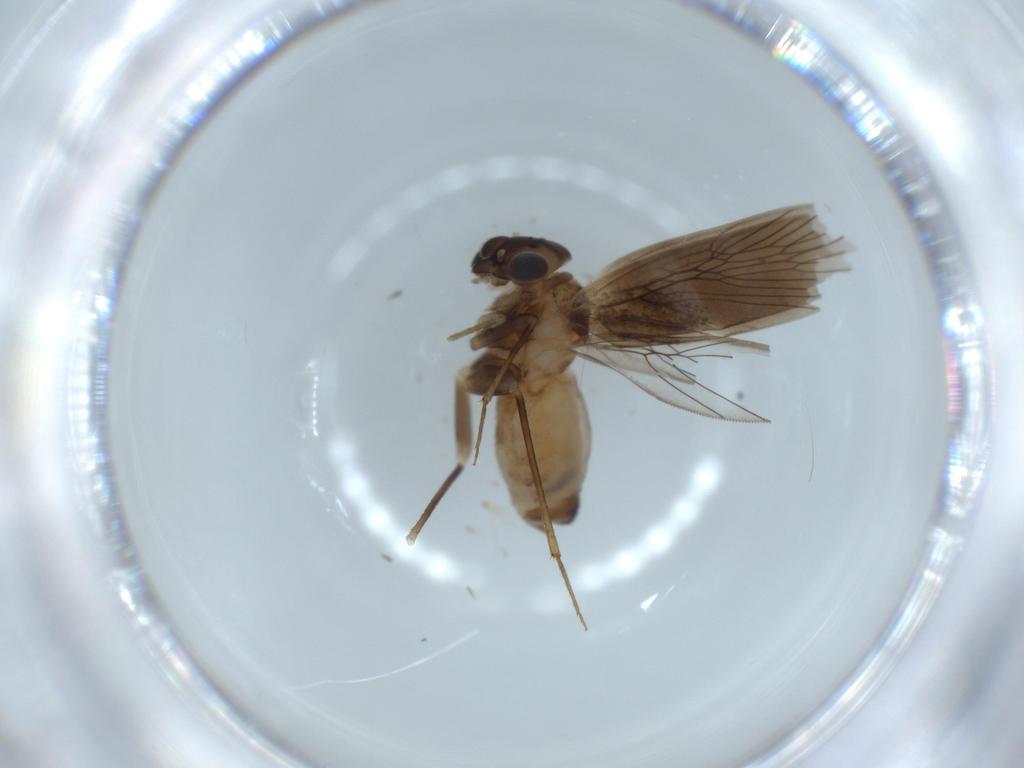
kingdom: Animalia
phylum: Arthropoda
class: Insecta
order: Psocodea
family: Lepidopsocidae
